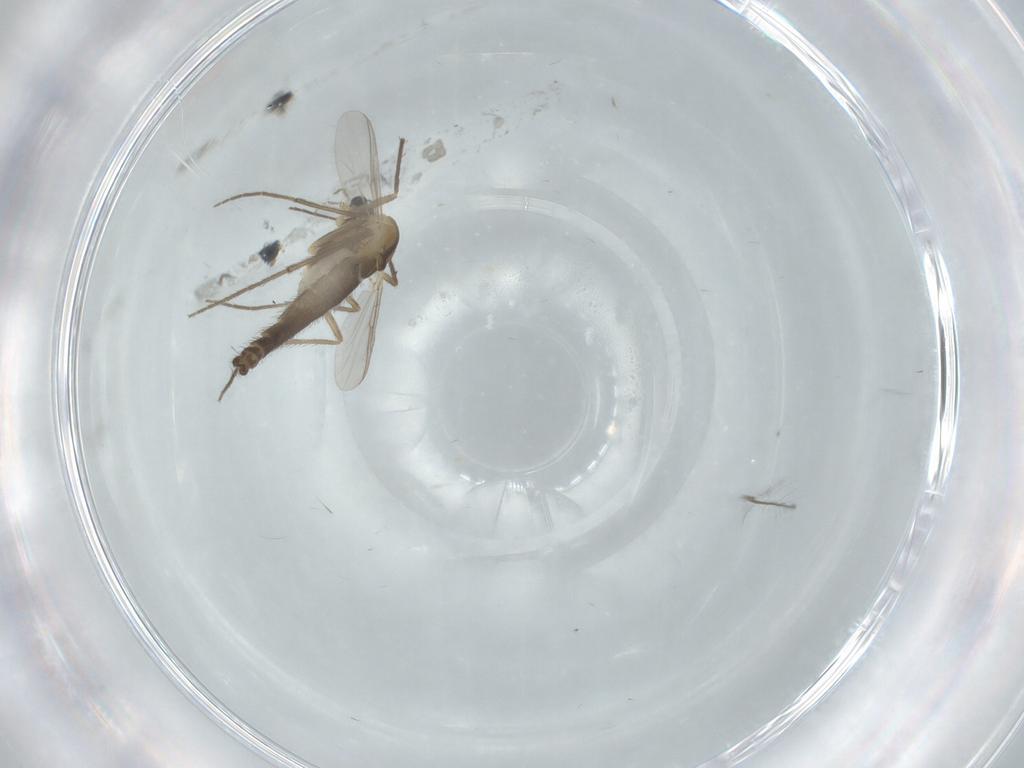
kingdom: Animalia
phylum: Arthropoda
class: Insecta
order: Diptera
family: Chironomidae
